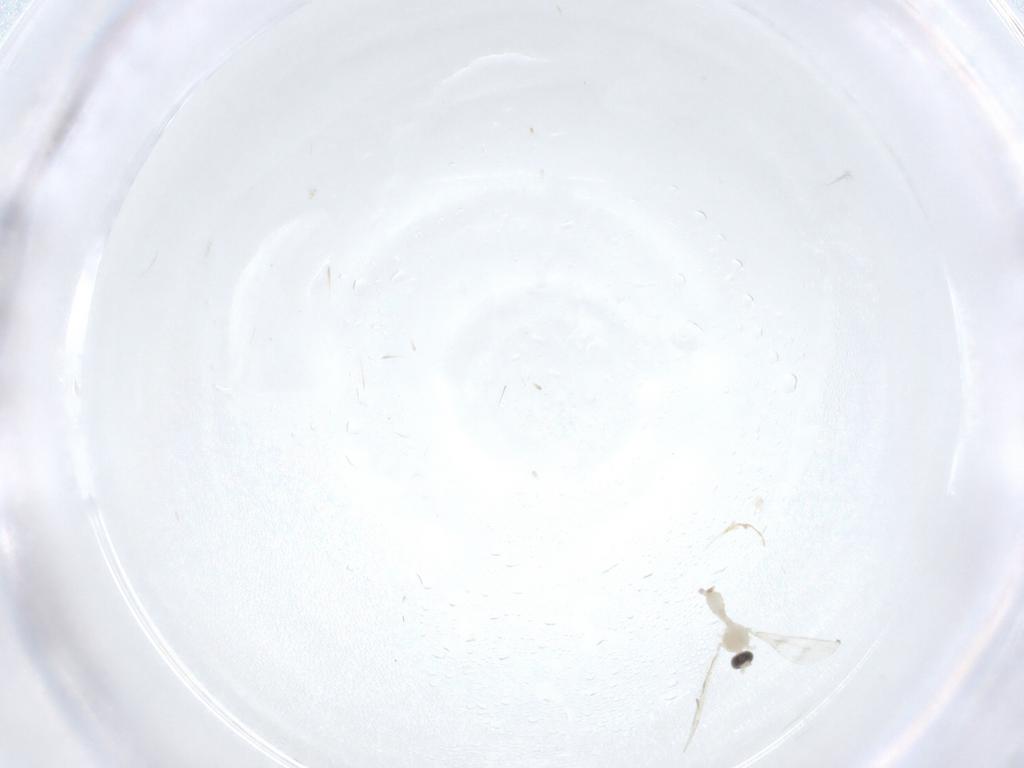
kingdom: Animalia
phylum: Arthropoda
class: Insecta
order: Diptera
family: Cecidomyiidae
